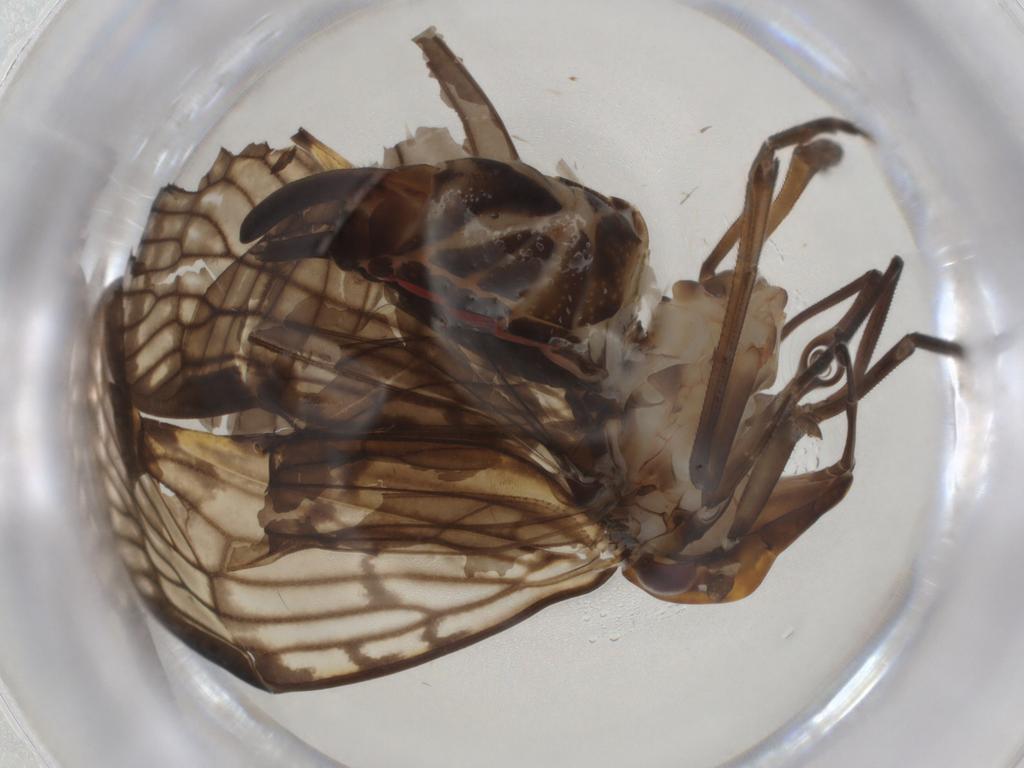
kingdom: Animalia
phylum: Arthropoda
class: Insecta
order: Hemiptera
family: Cixiidae
